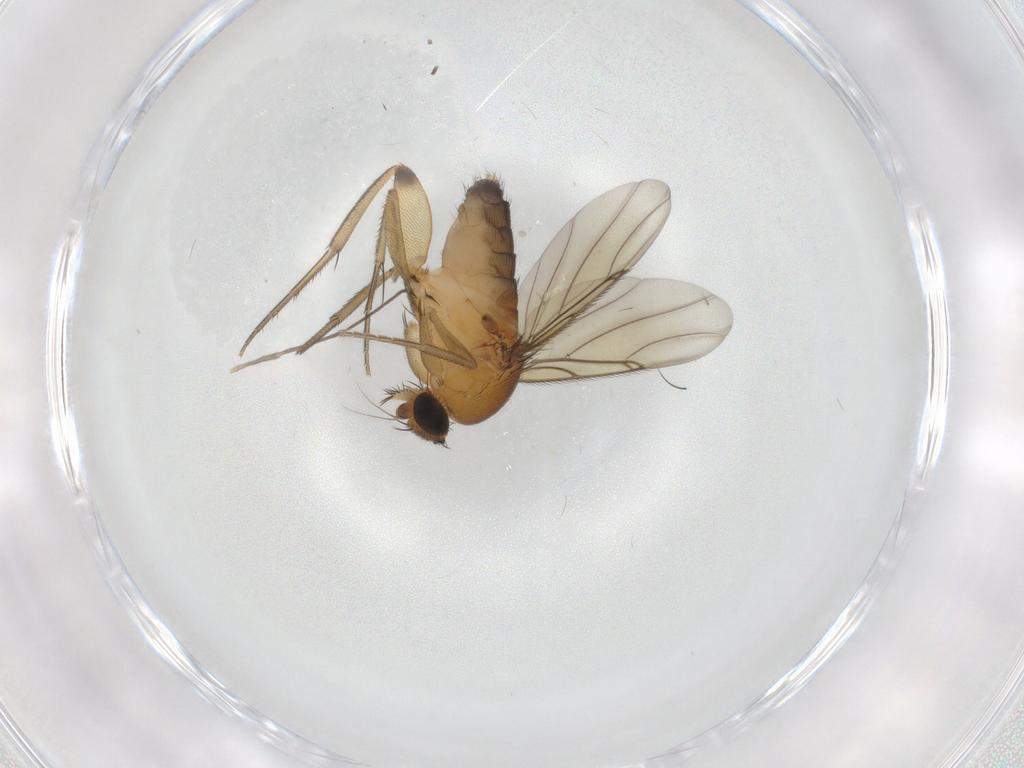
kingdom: Animalia
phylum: Arthropoda
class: Insecta
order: Diptera
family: Phoridae
